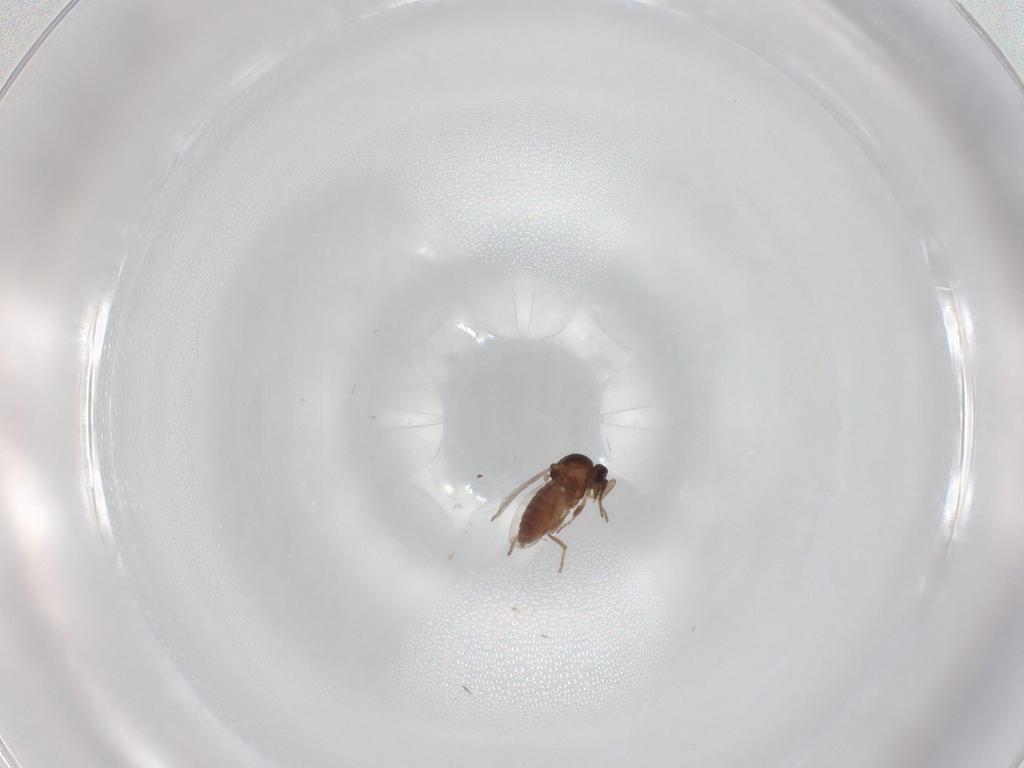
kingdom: Animalia
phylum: Arthropoda
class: Insecta
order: Diptera
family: Ceratopogonidae
